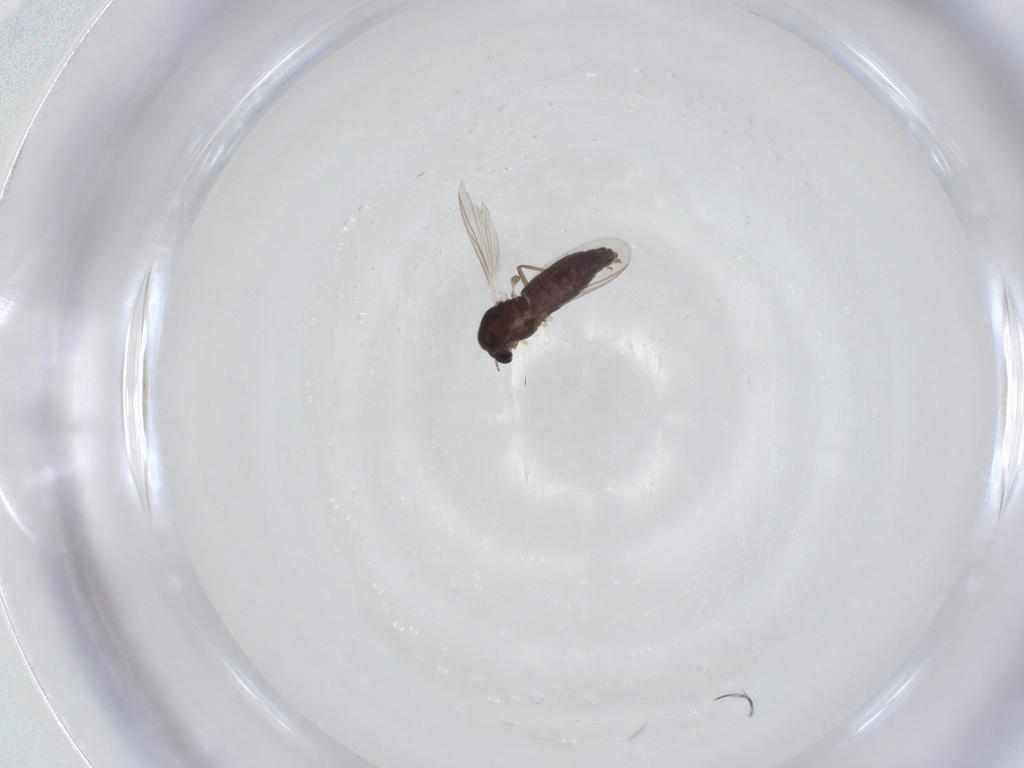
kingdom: Animalia
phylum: Arthropoda
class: Insecta
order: Diptera
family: Chironomidae
